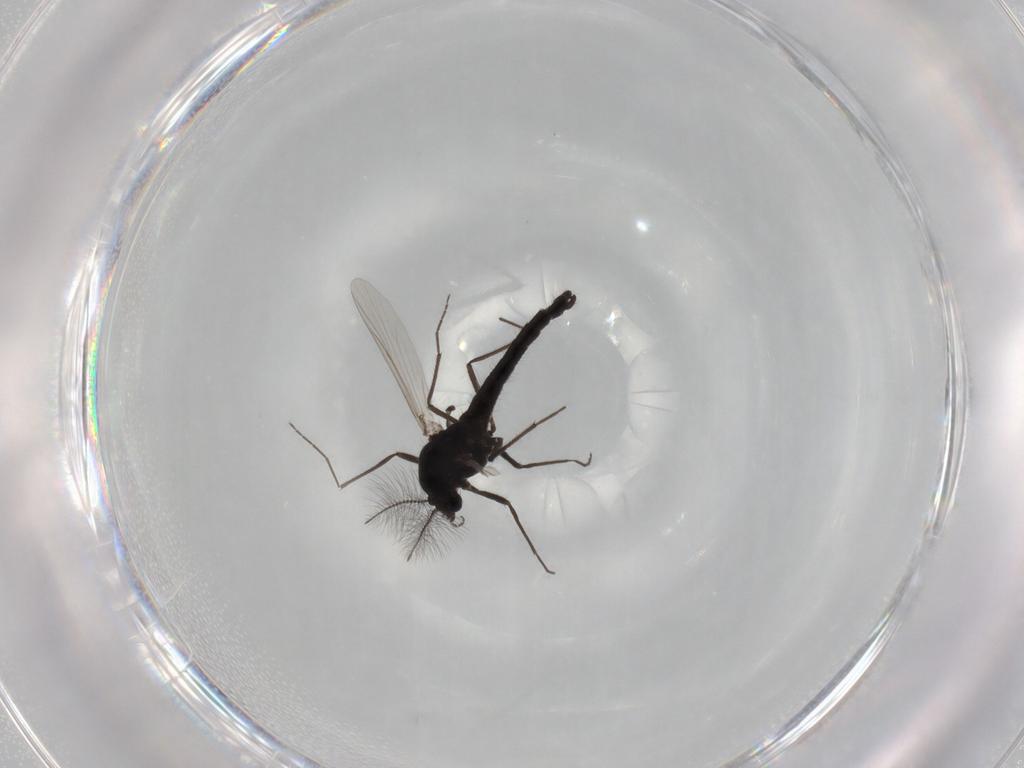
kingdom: Animalia
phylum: Arthropoda
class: Insecta
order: Diptera
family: Chironomidae
